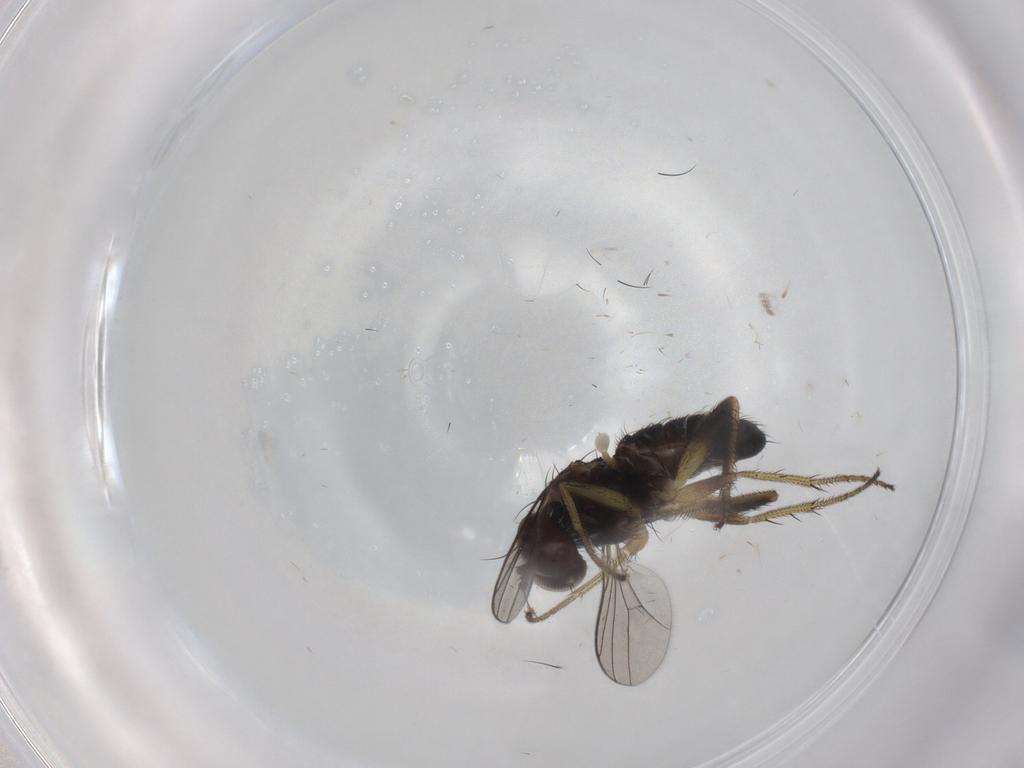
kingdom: Animalia
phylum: Arthropoda
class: Insecta
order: Diptera
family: Dolichopodidae
